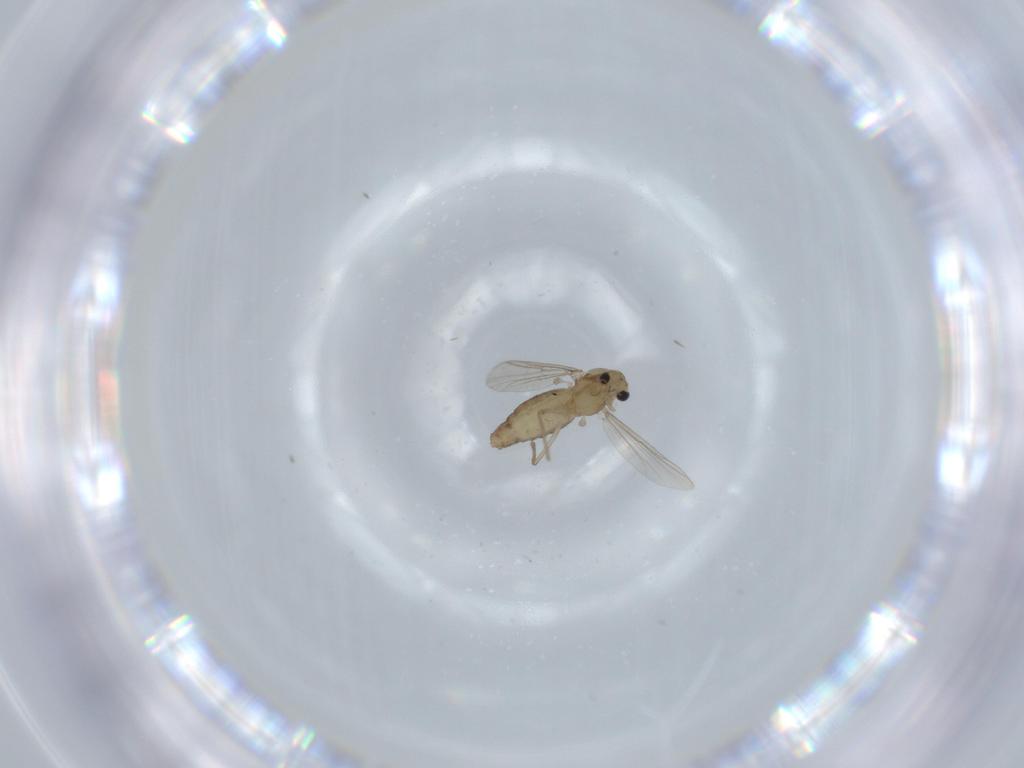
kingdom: Animalia
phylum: Arthropoda
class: Insecta
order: Diptera
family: Chironomidae
